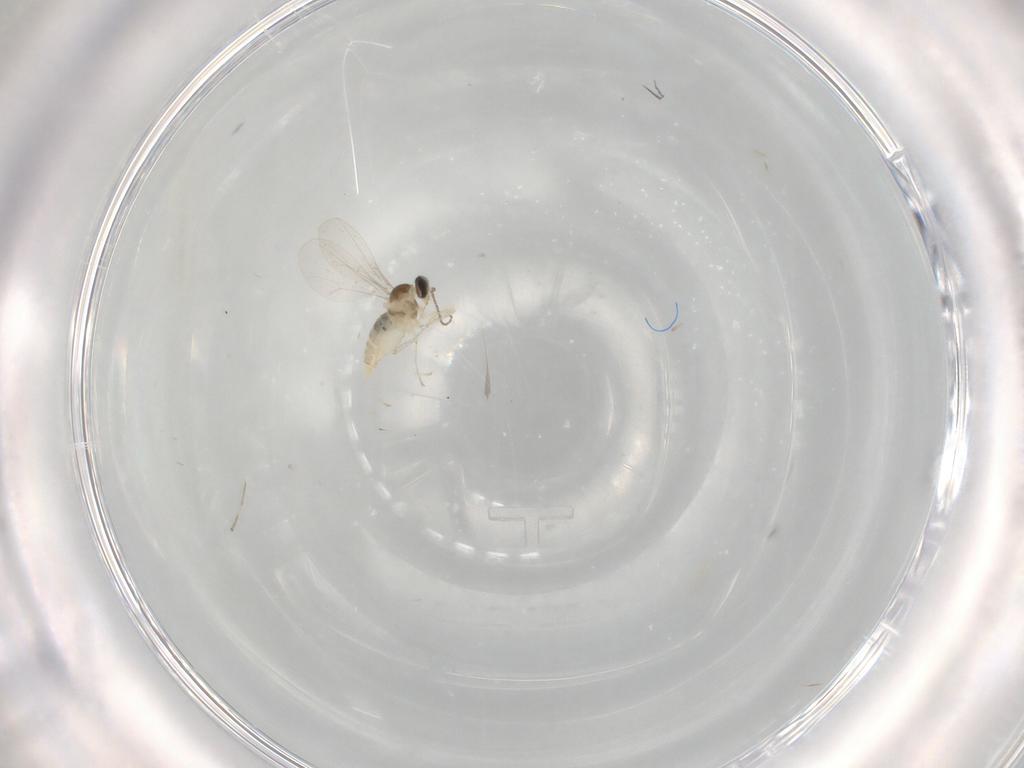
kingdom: Animalia
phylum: Arthropoda
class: Insecta
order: Diptera
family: Cecidomyiidae
